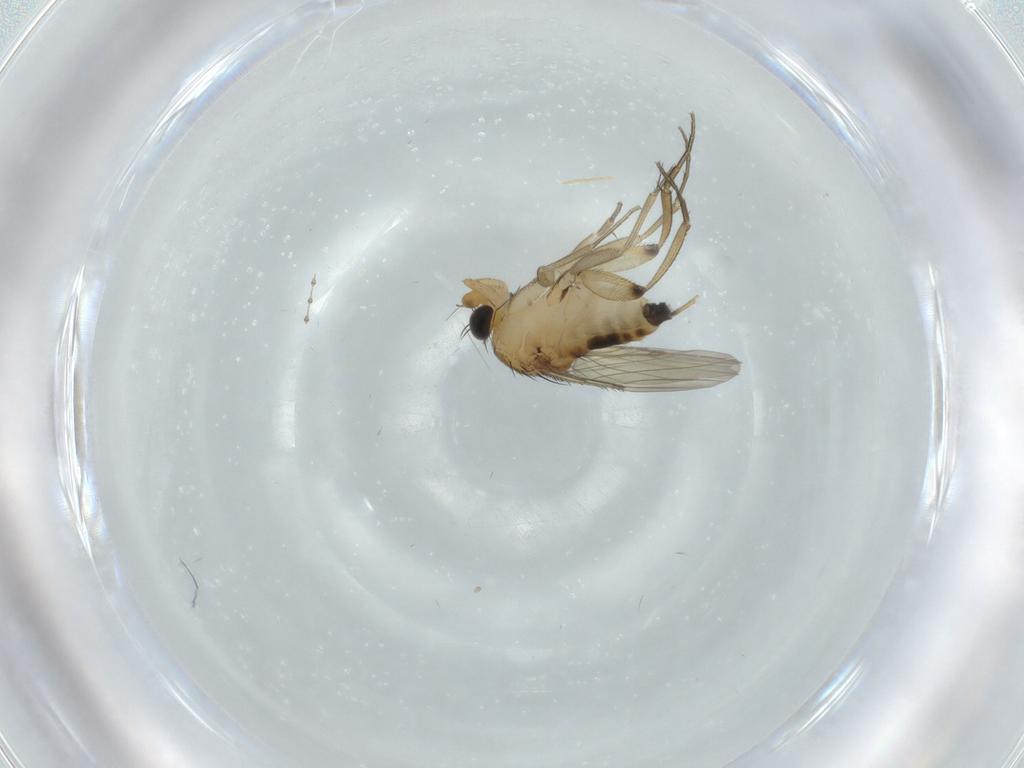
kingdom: Animalia
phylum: Arthropoda
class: Insecta
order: Diptera
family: Phoridae
